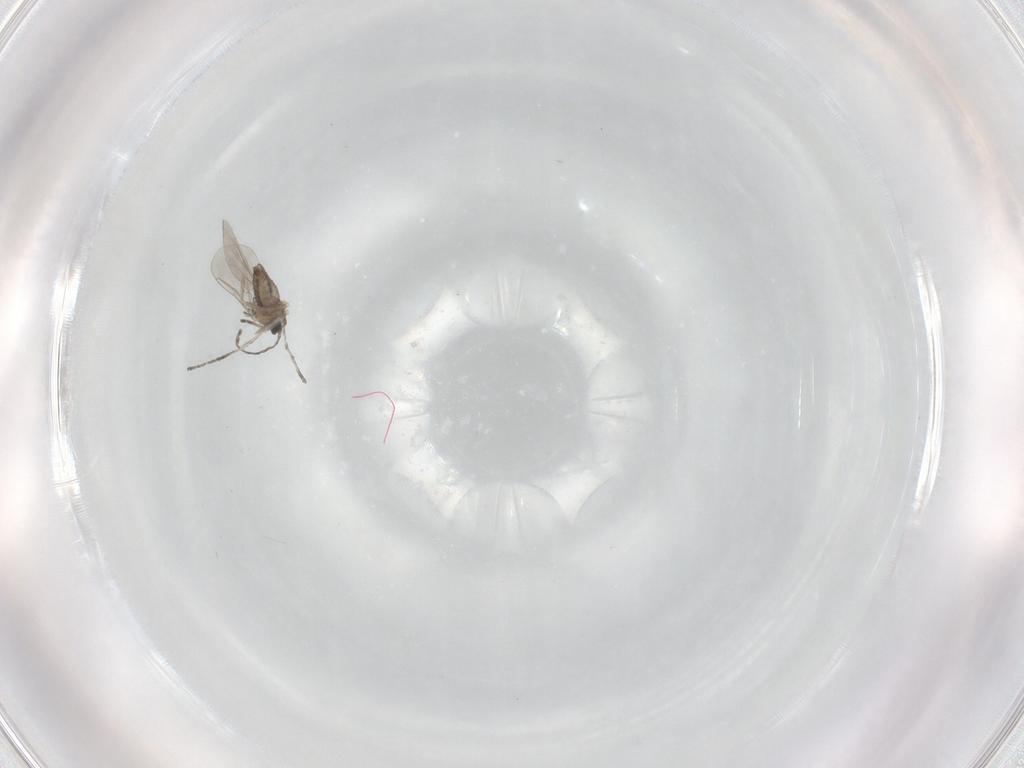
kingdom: Animalia
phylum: Arthropoda
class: Insecta
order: Diptera
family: Cecidomyiidae
